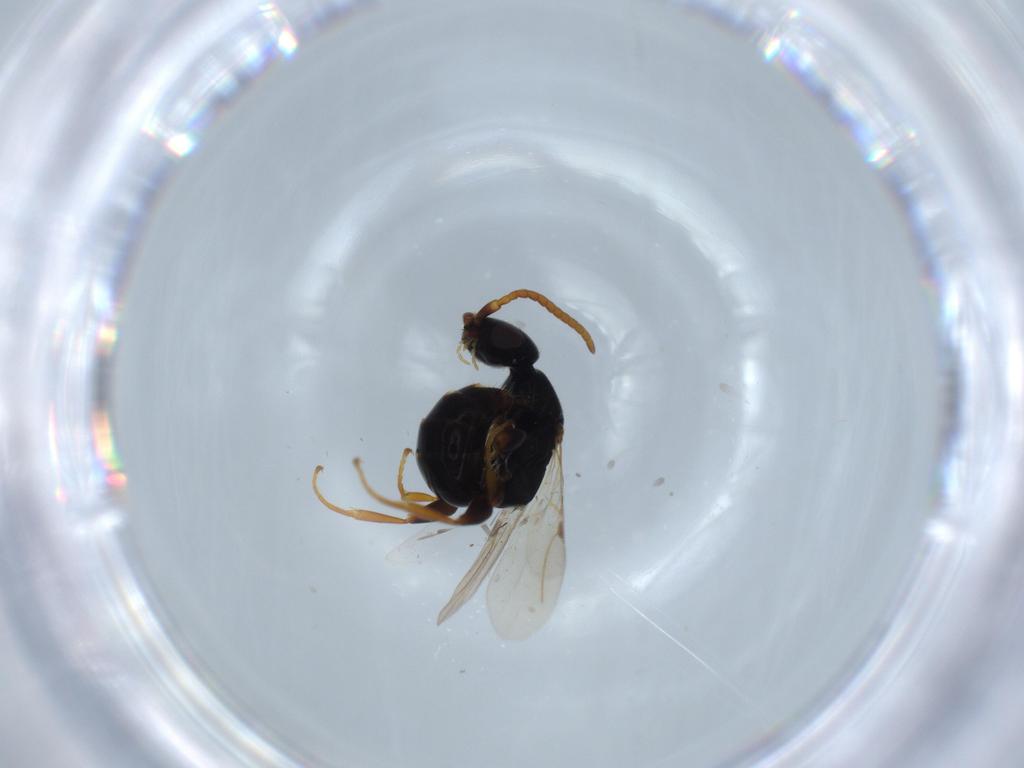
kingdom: Animalia
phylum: Arthropoda
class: Insecta
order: Hymenoptera
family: Bethylidae
